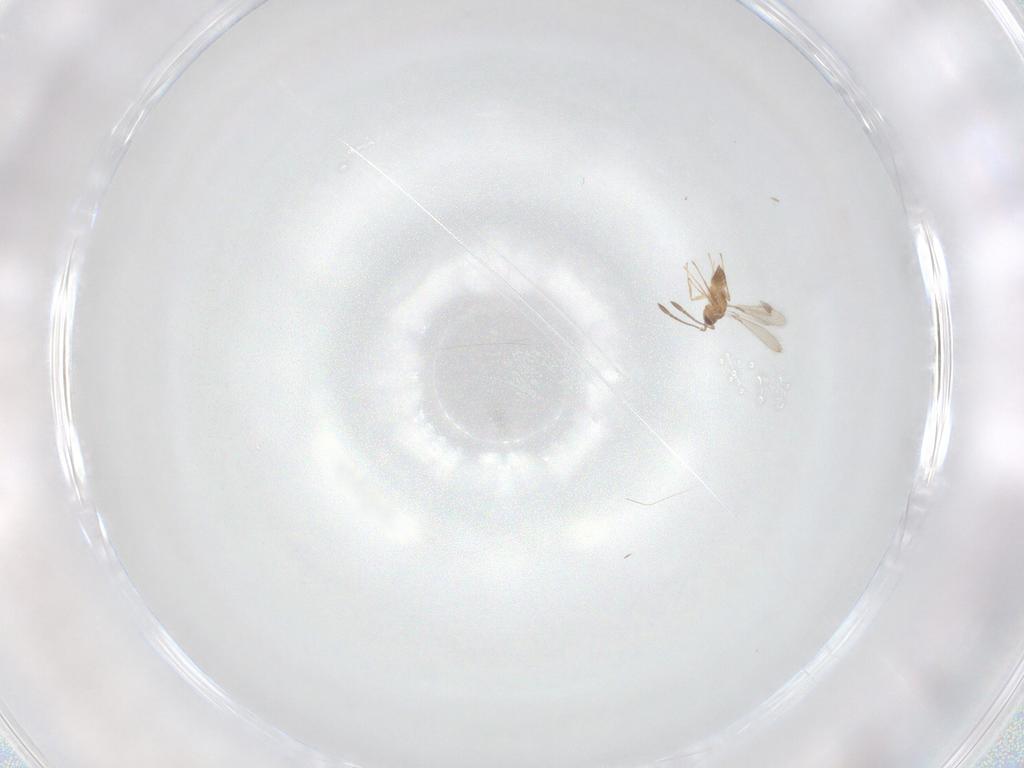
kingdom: Animalia
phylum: Arthropoda
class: Insecta
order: Hymenoptera
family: Mymaridae
